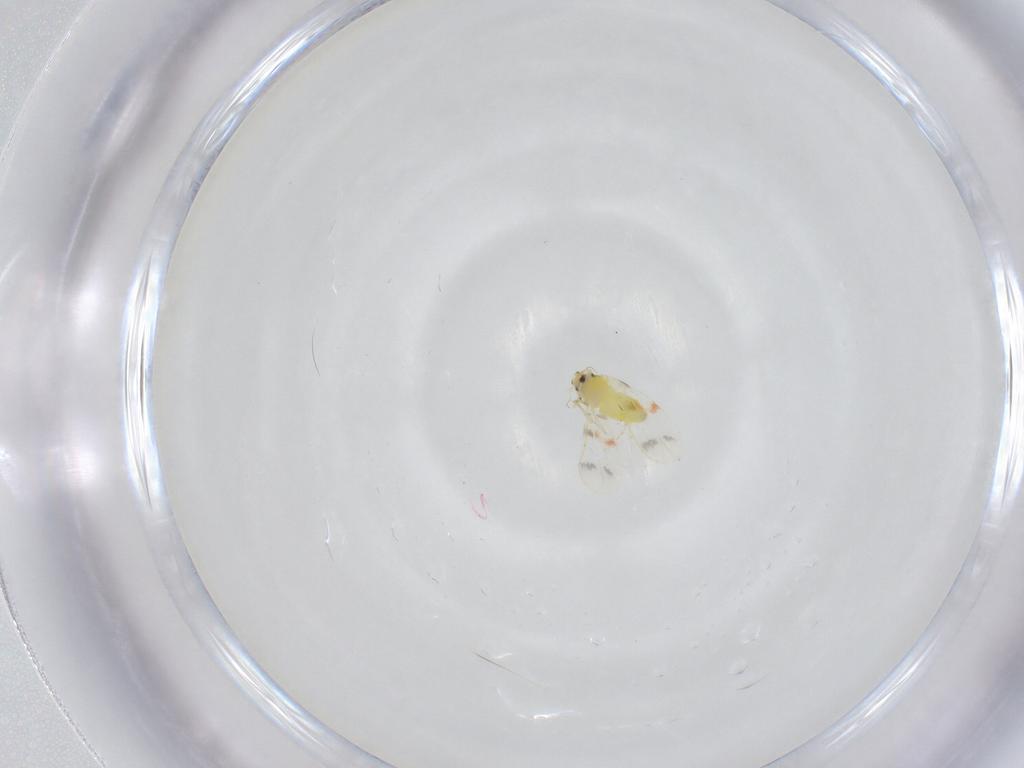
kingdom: Animalia
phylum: Arthropoda
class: Insecta
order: Hemiptera
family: Aleyrodidae
